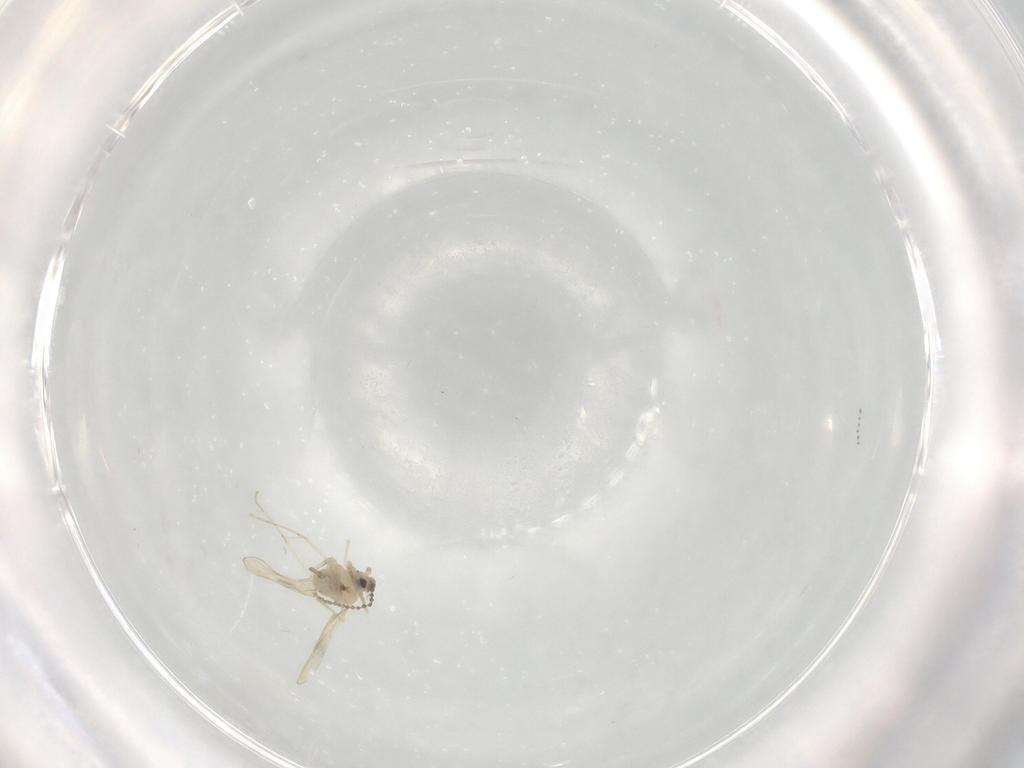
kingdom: Animalia
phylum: Arthropoda
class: Insecta
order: Diptera
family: Cecidomyiidae
